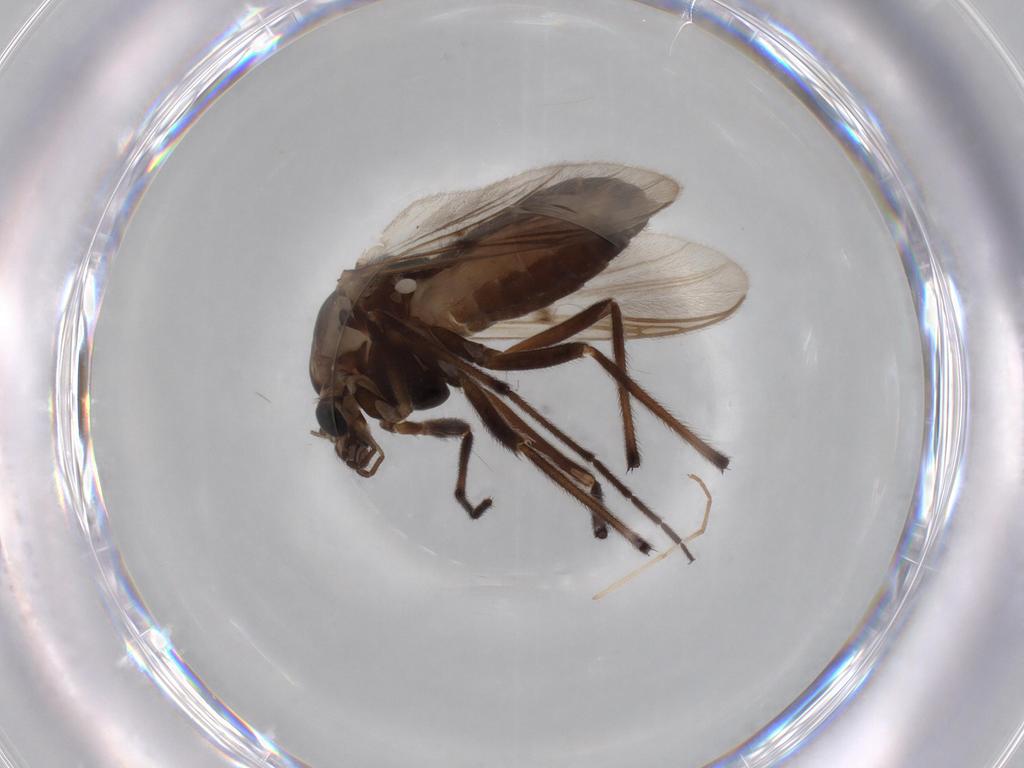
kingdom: Animalia
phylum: Arthropoda
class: Insecta
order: Diptera
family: Chironomidae
